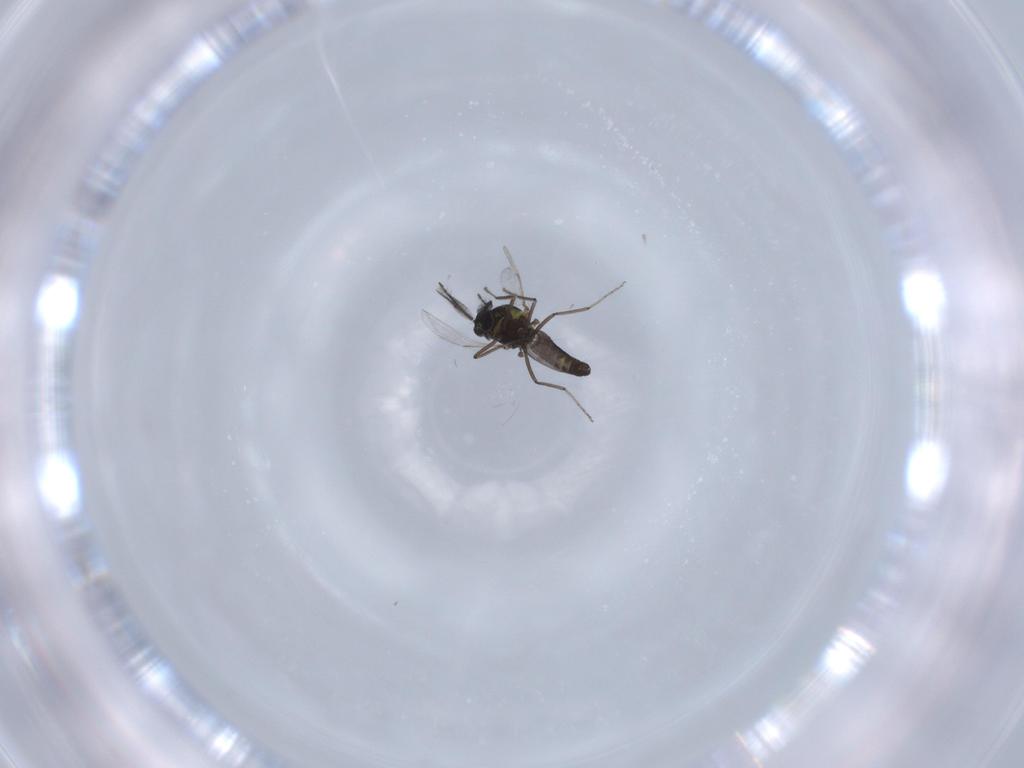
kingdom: Animalia
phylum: Arthropoda
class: Insecta
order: Diptera
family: Ceratopogonidae
